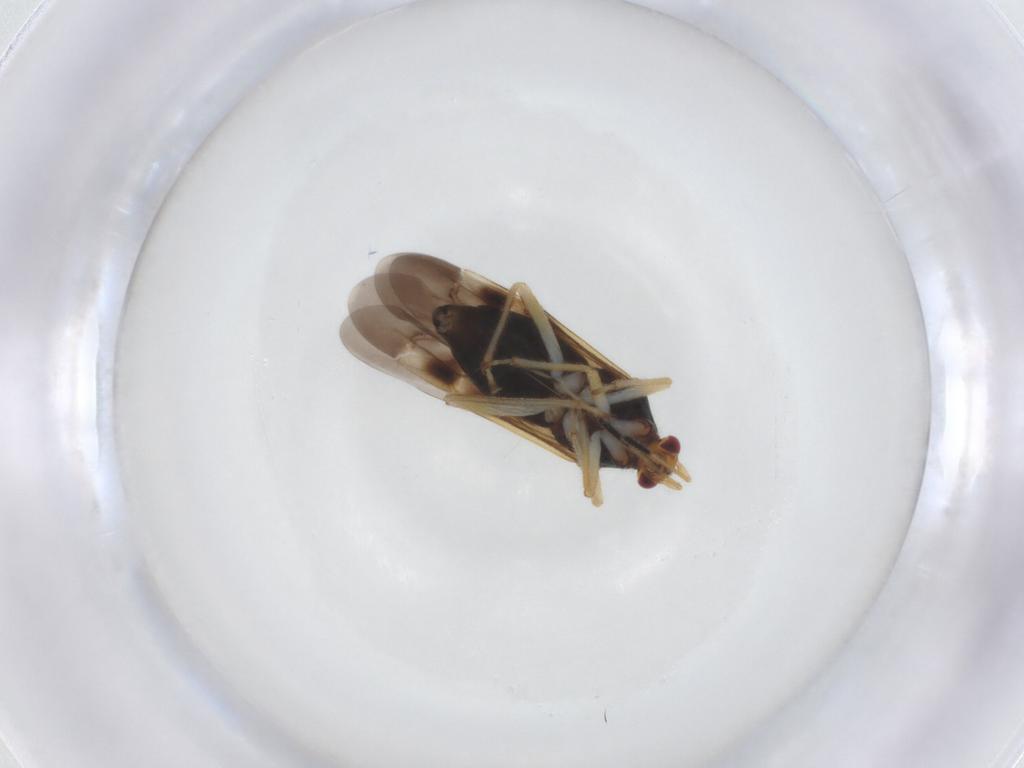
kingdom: Animalia
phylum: Arthropoda
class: Insecta
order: Hemiptera
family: Miridae
